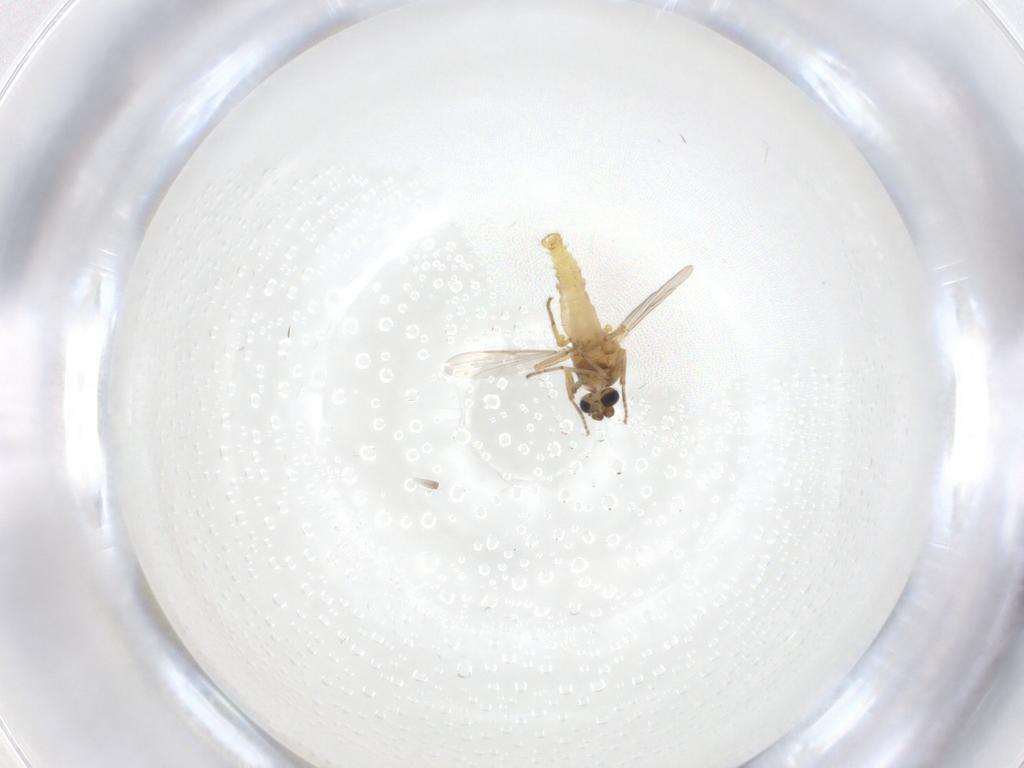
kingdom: Animalia
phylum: Arthropoda
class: Insecta
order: Diptera
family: Ceratopogonidae
